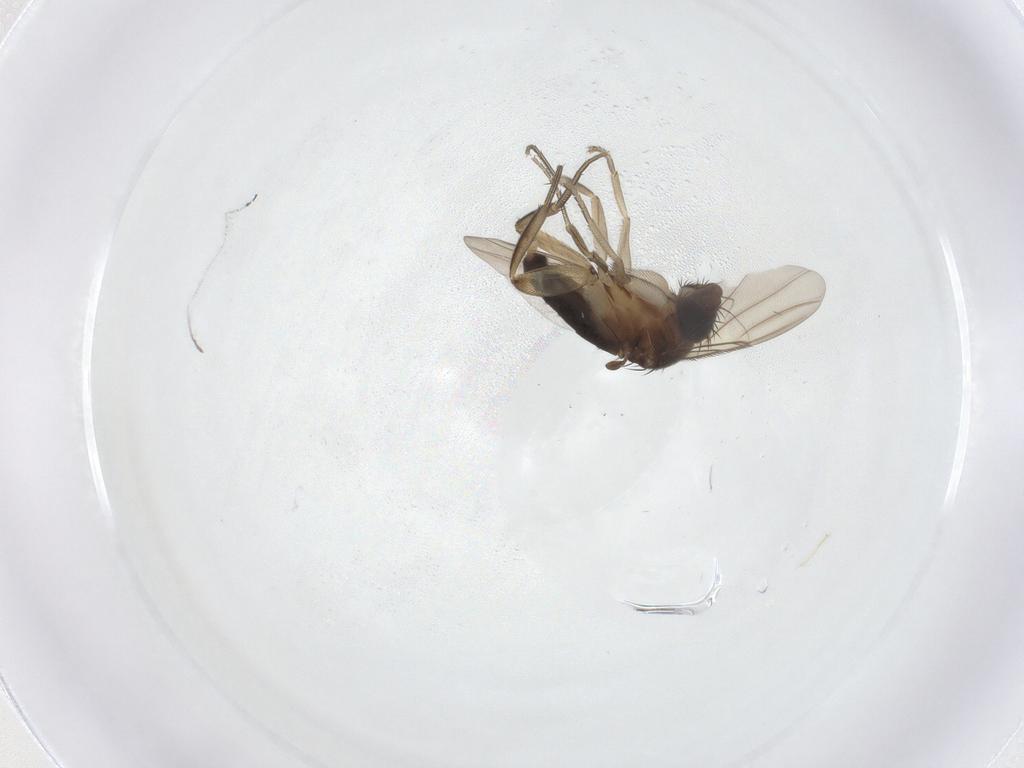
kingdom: Animalia
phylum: Arthropoda
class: Insecta
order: Diptera
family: Phoridae
